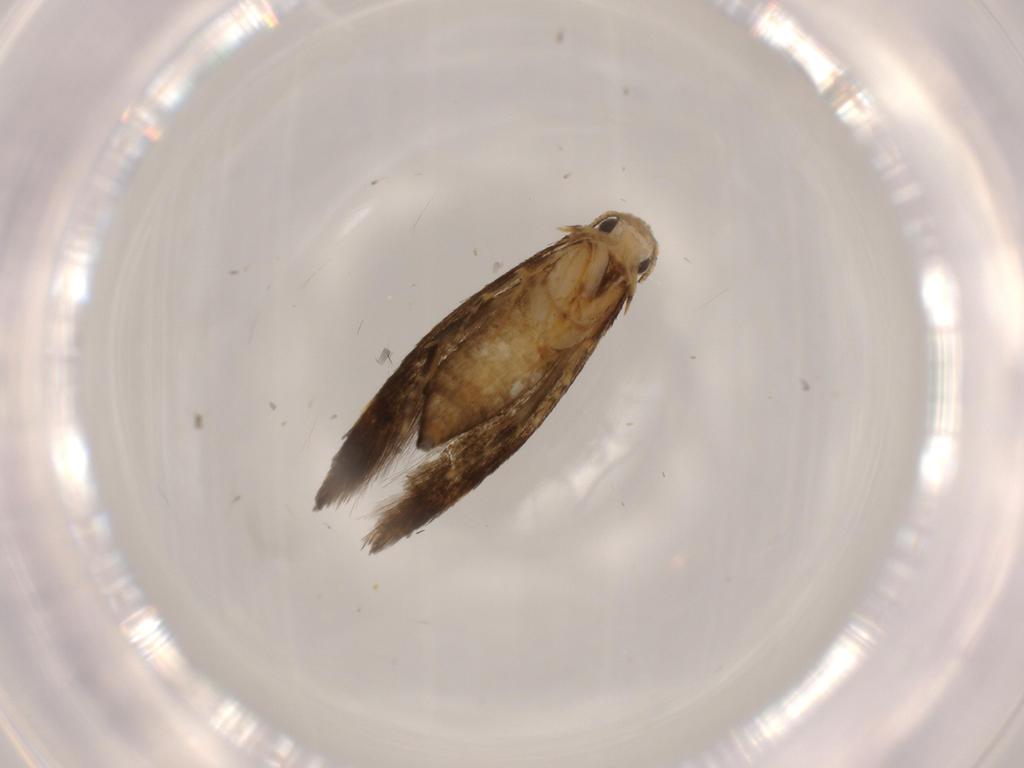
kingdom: Animalia
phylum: Arthropoda
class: Insecta
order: Lepidoptera
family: Tineidae
